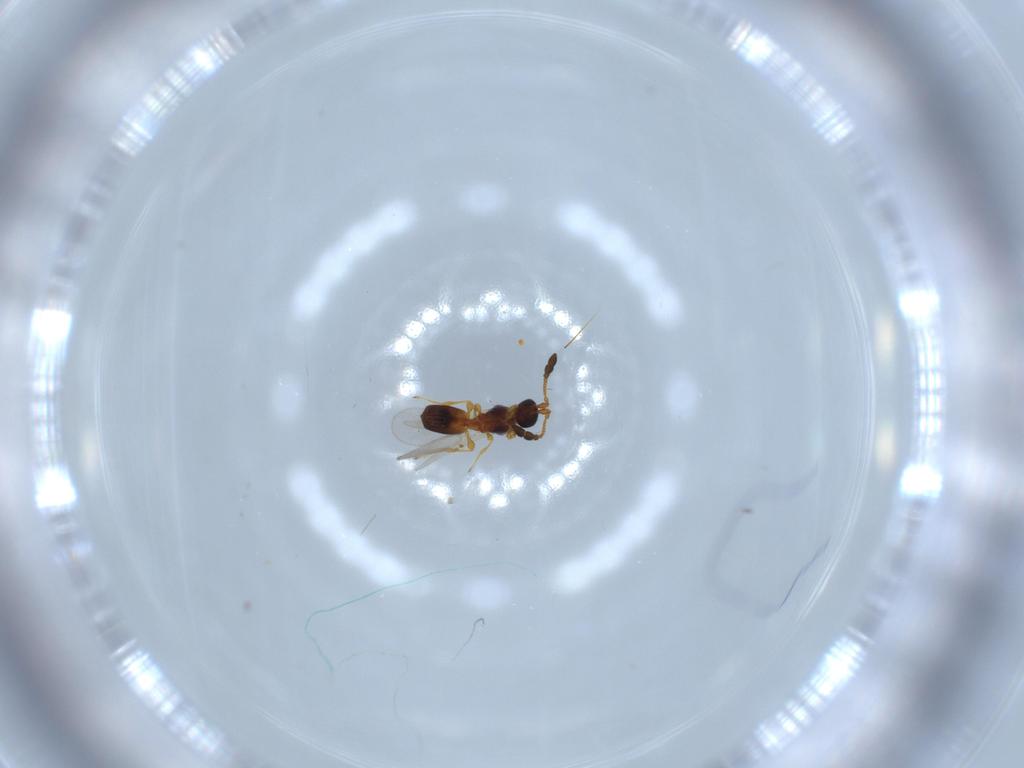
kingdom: Animalia
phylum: Arthropoda
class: Insecta
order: Hymenoptera
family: Diapriidae
